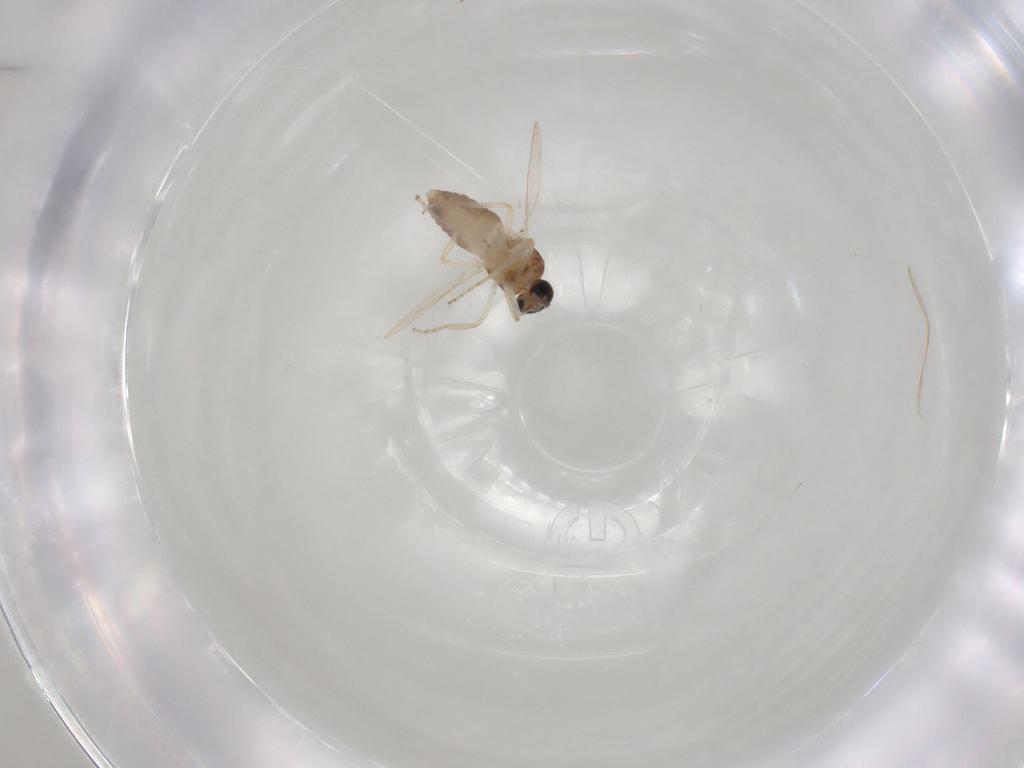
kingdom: Animalia
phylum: Arthropoda
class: Insecta
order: Diptera
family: Ceratopogonidae
